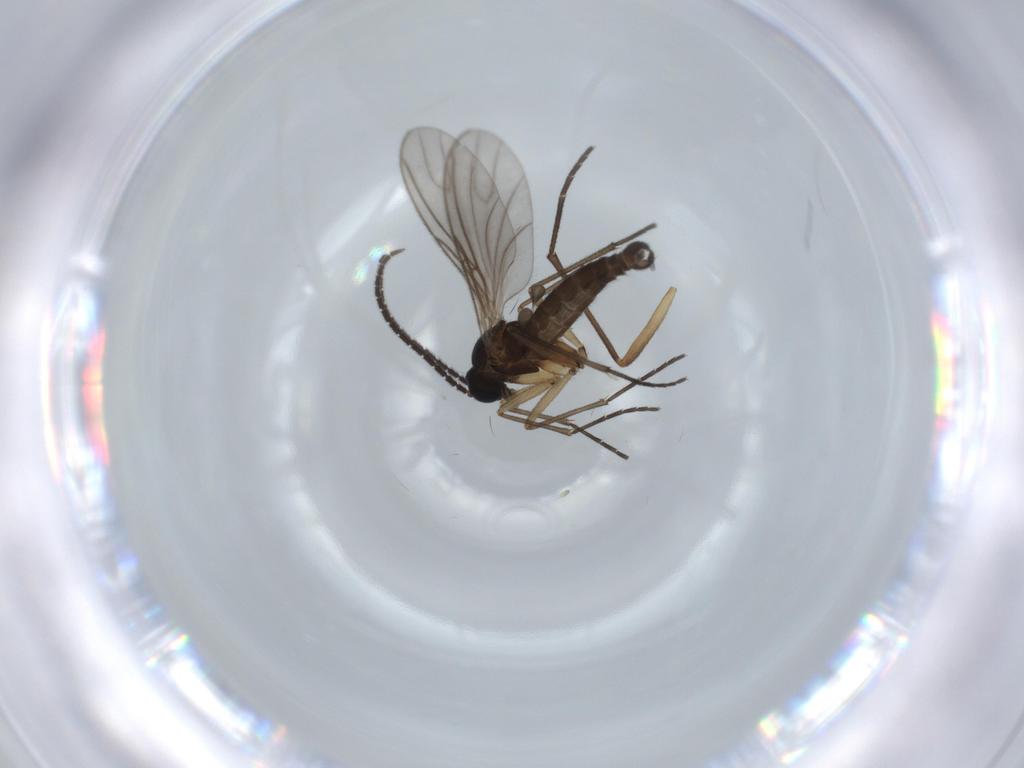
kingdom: Animalia
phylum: Arthropoda
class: Insecta
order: Diptera
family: Sciaridae
